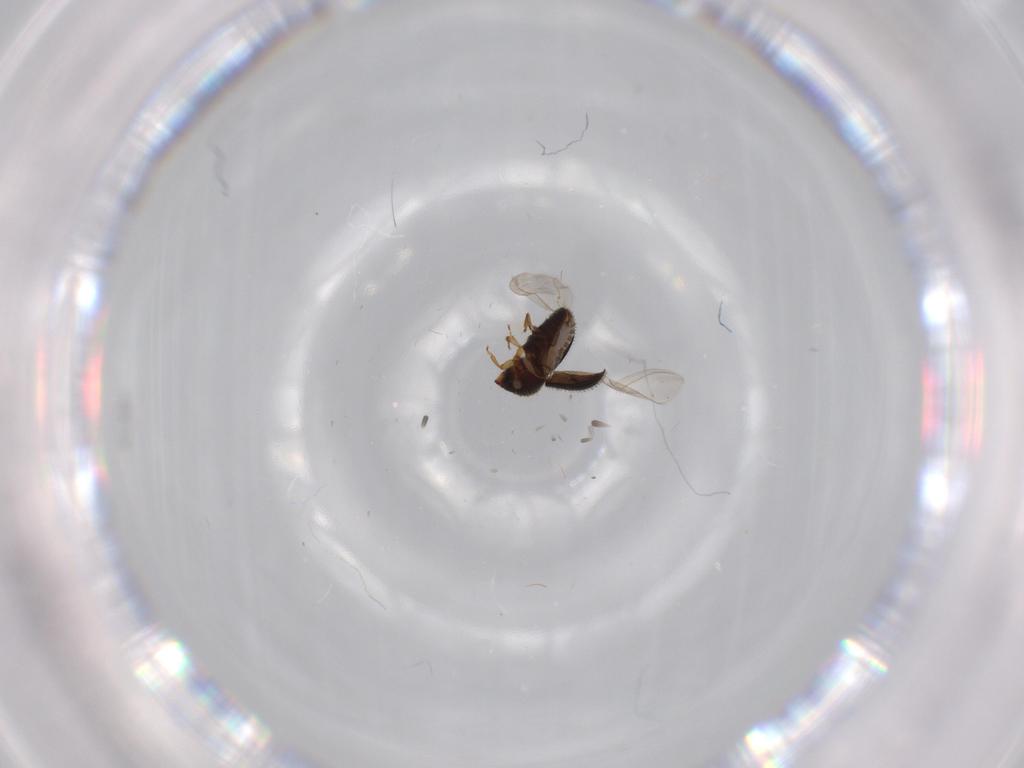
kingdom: Animalia
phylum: Arthropoda
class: Insecta
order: Coleoptera
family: Curculionidae
